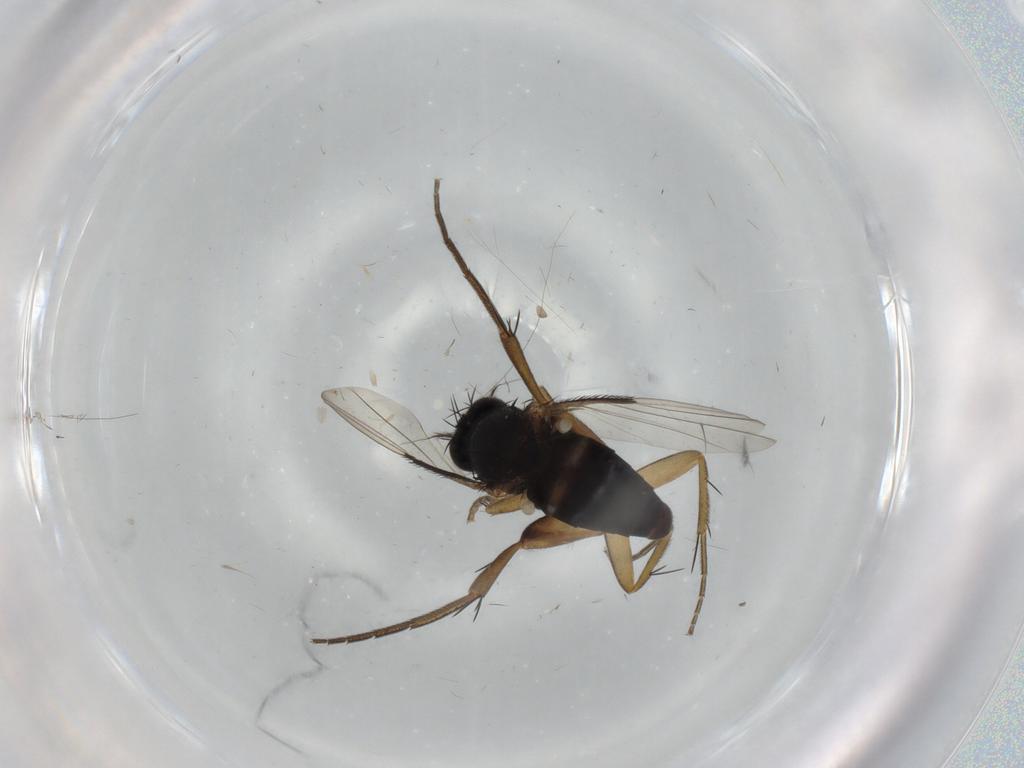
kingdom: Animalia
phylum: Arthropoda
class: Insecta
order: Diptera
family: Phoridae
